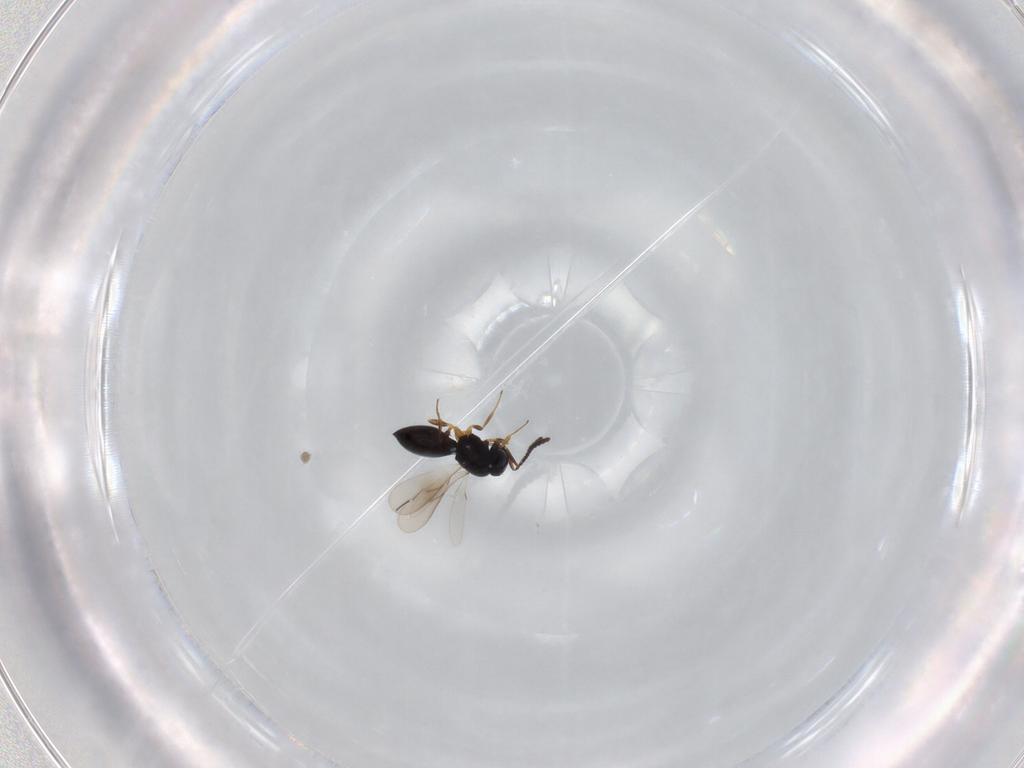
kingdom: Animalia
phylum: Arthropoda
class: Insecta
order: Hymenoptera
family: Scelionidae
